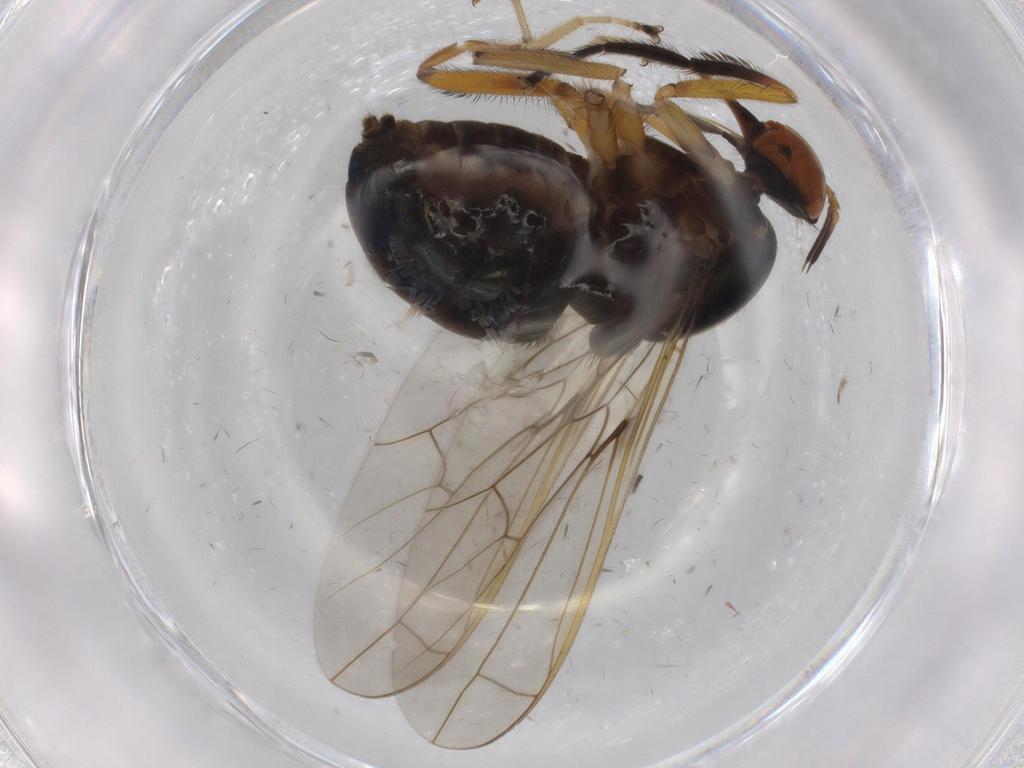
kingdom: Animalia
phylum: Arthropoda
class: Insecta
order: Diptera
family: Empididae
